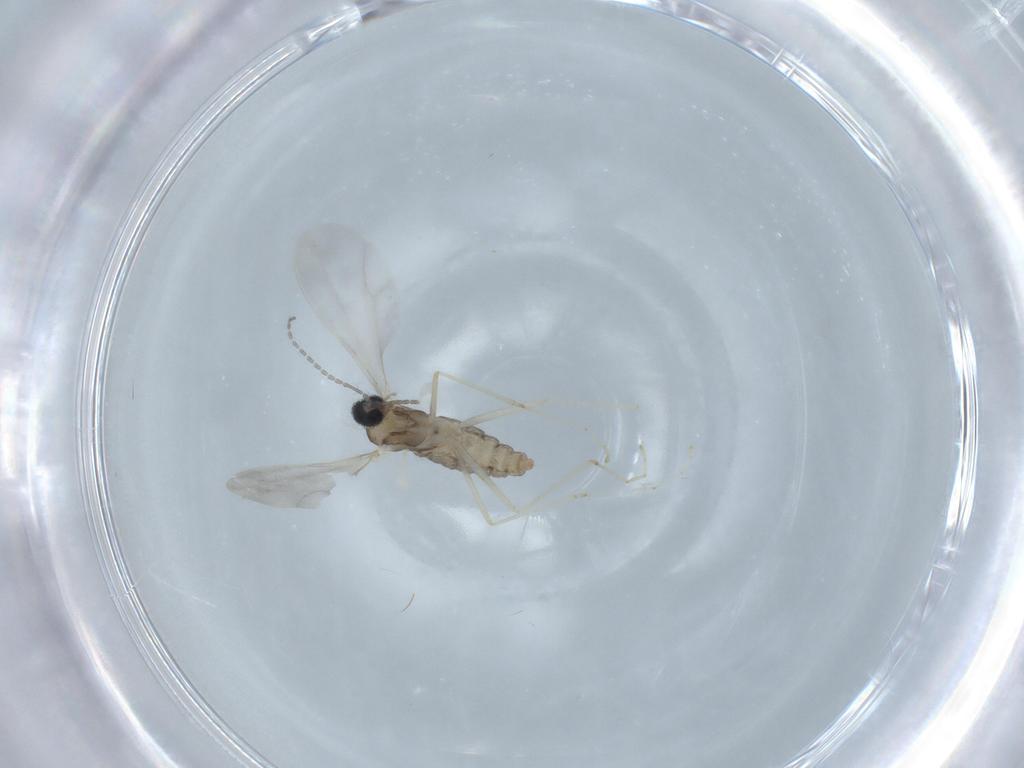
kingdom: Animalia
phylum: Arthropoda
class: Insecta
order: Diptera
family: Cecidomyiidae
